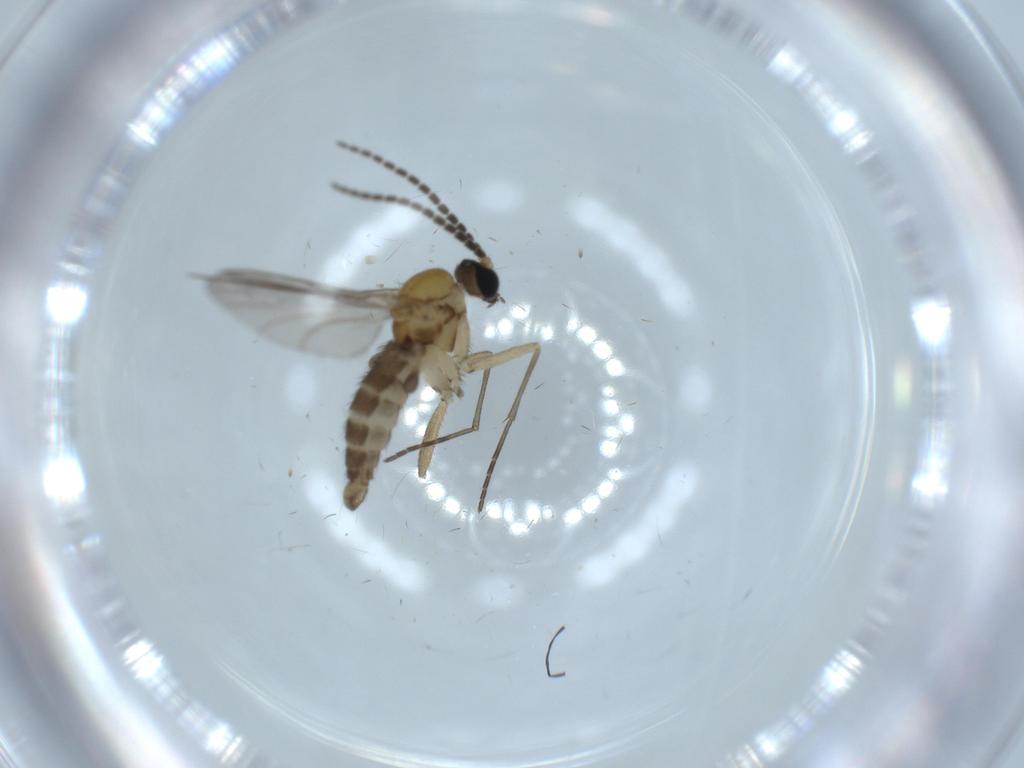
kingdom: Animalia
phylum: Arthropoda
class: Insecta
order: Diptera
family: Sciaridae
